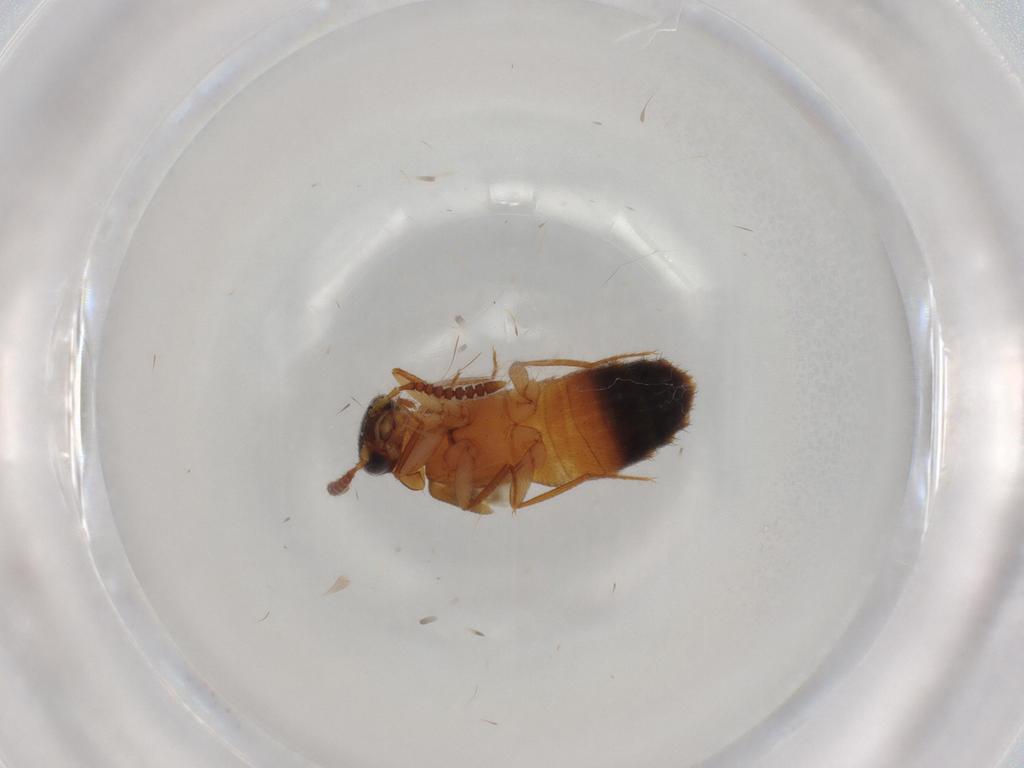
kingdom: Animalia
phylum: Arthropoda
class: Insecta
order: Coleoptera
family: Staphylinidae
